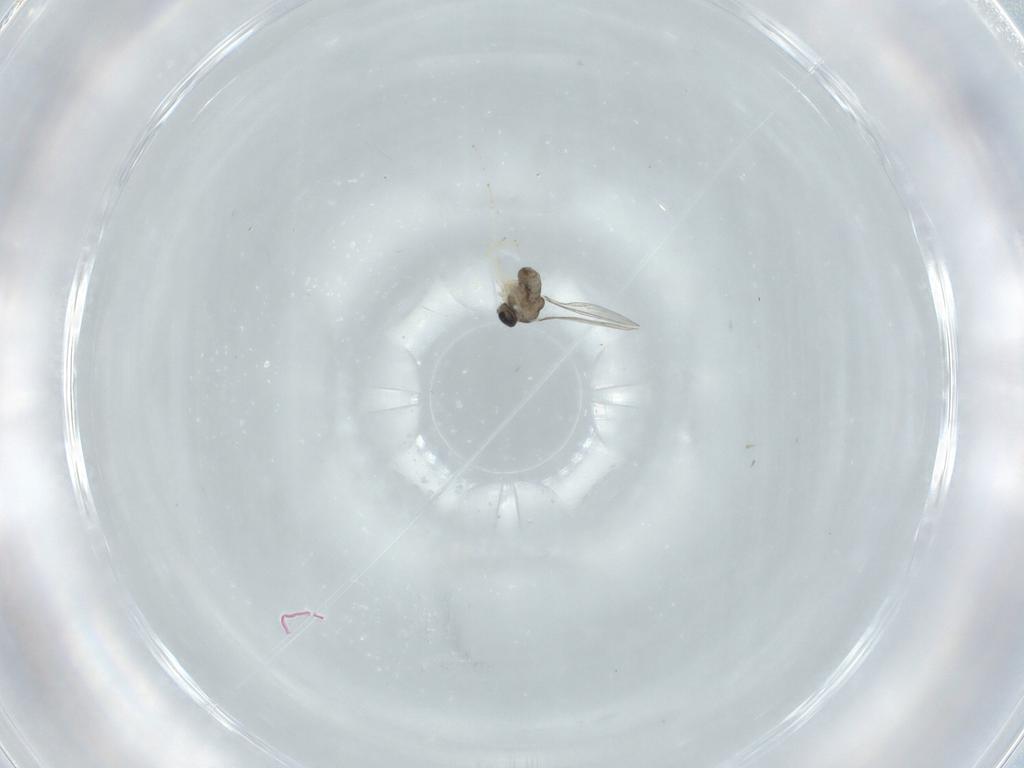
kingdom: Animalia
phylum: Arthropoda
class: Insecta
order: Diptera
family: Cecidomyiidae
